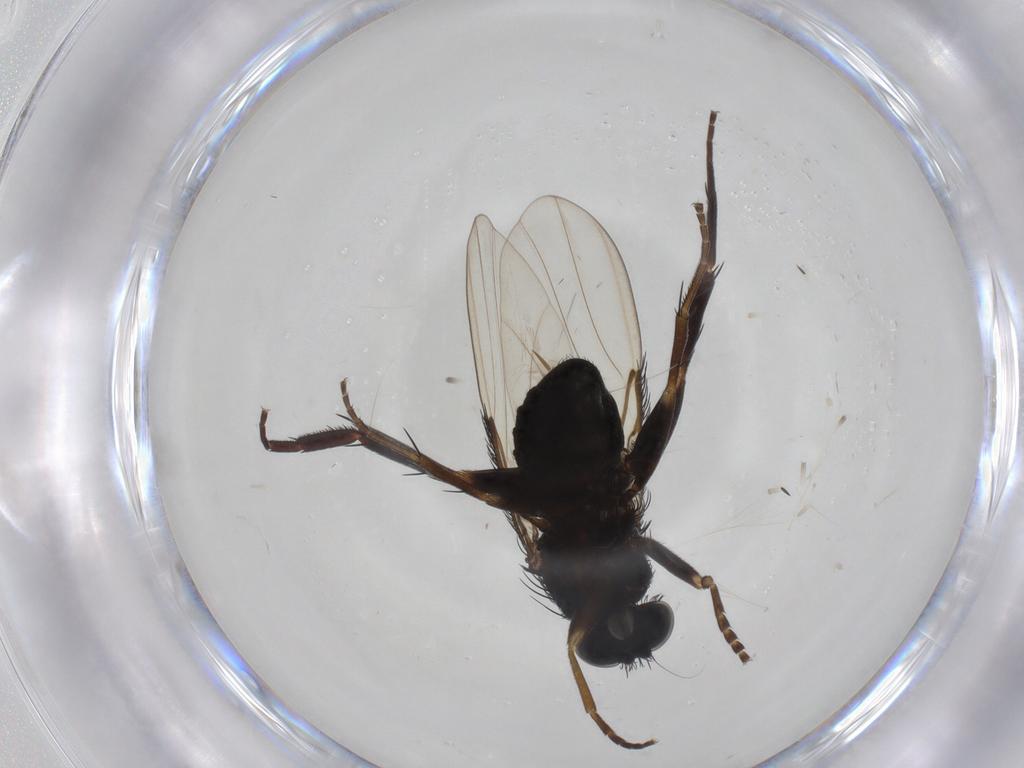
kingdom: Animalia
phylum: Arthropoda
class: Insecta
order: Diptera
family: Phoridae
